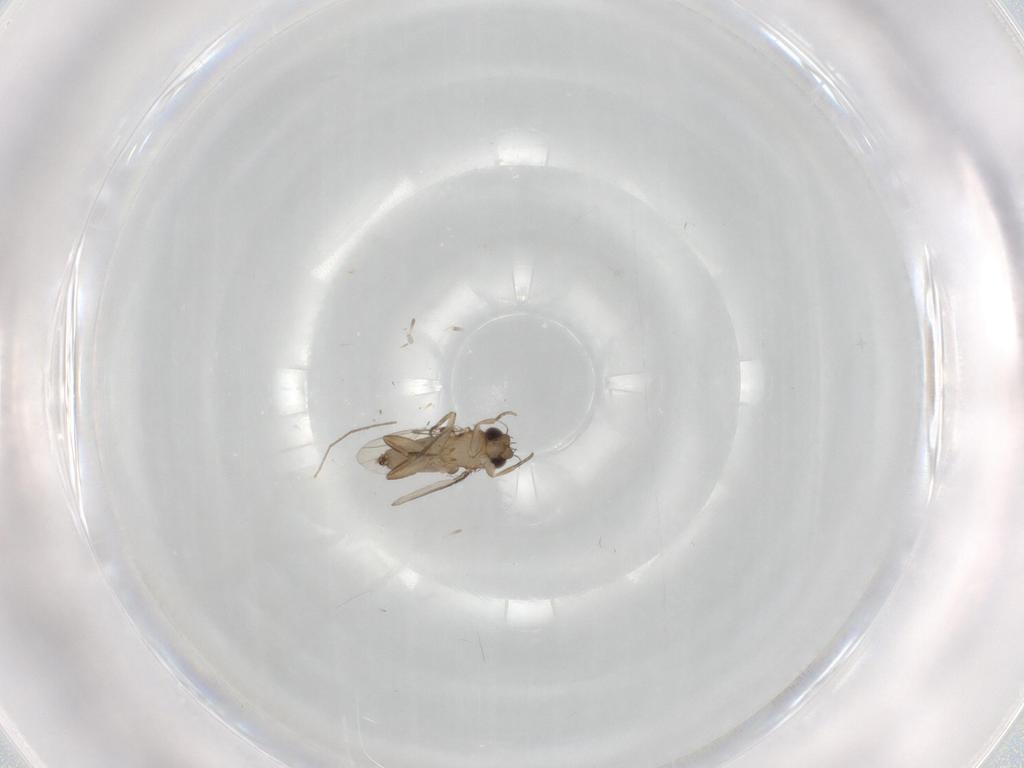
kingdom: Animalia
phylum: Arthropoda
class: Insecta
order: Diptera
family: Phoridae
